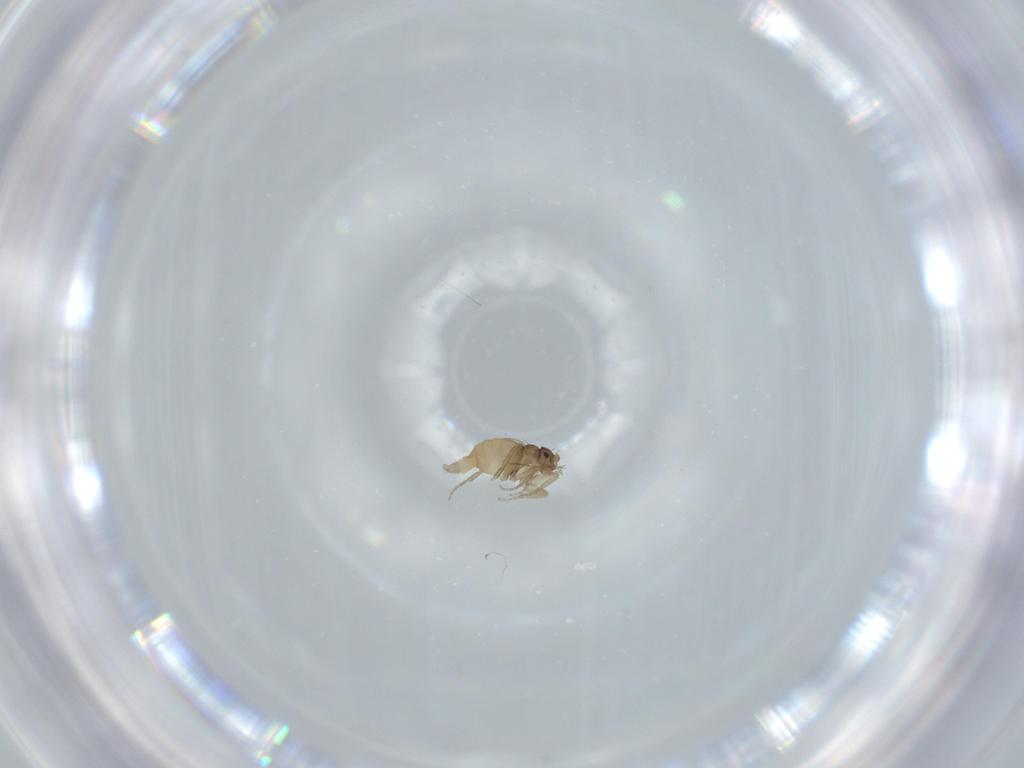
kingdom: Animalia
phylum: Arthropoda
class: Insecta
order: Diptera
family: Phoridae
